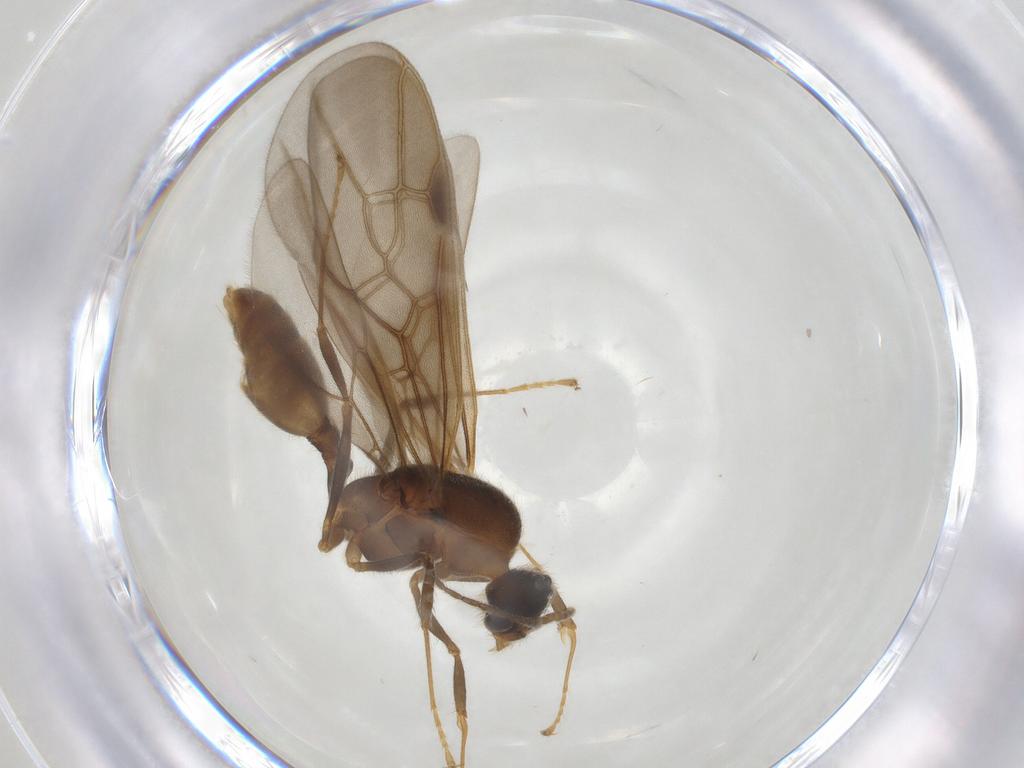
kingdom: Animalia
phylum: Arthropoda
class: Insecta
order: Hymenoptera
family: Formicidae
